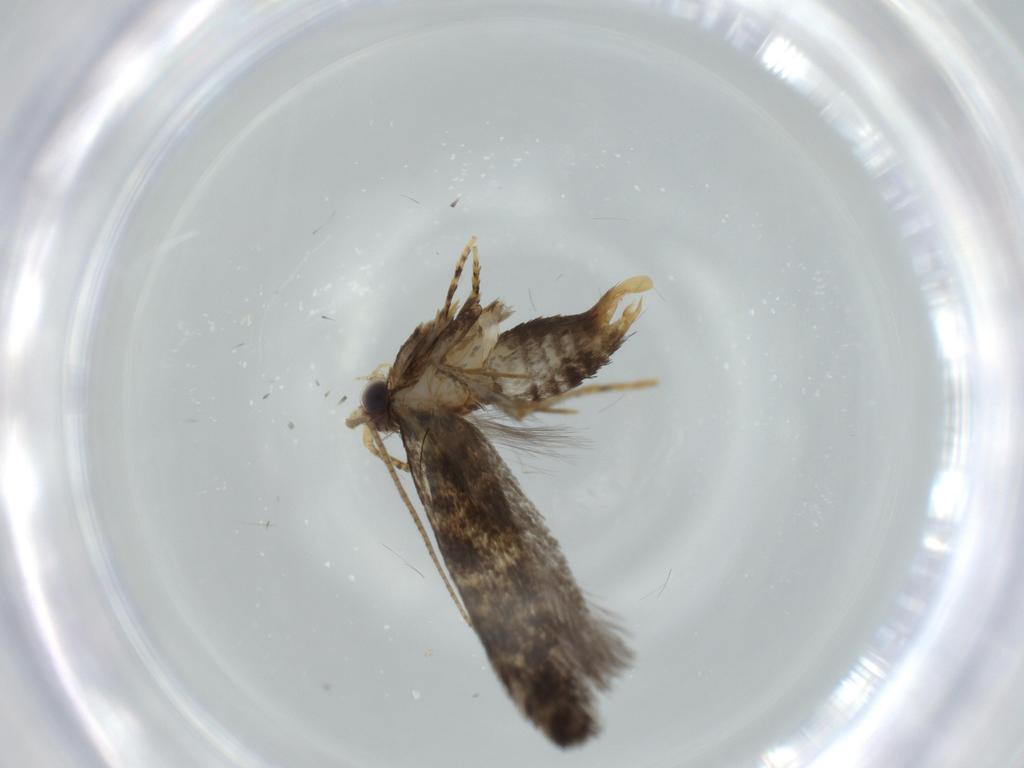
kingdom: Animalia
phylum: Arthropoda
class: Insecta
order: Lepidoptera
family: Tineidae
